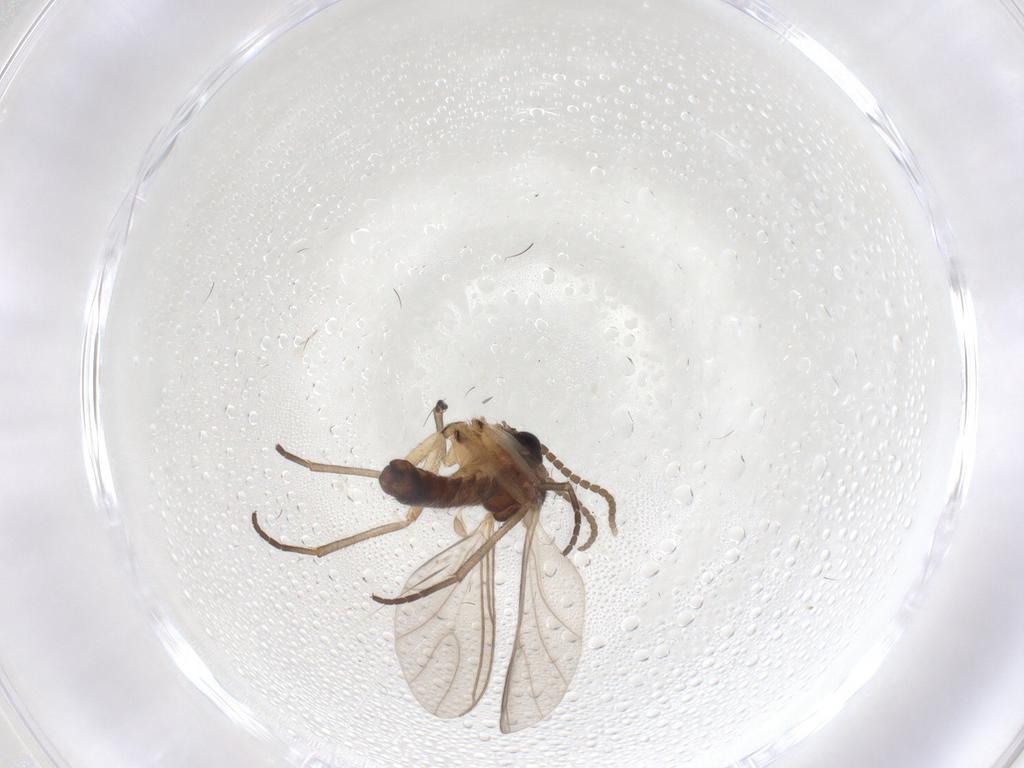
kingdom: Animalia
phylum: Arthropoda
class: Insecta
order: Diptera
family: Sciaridae
